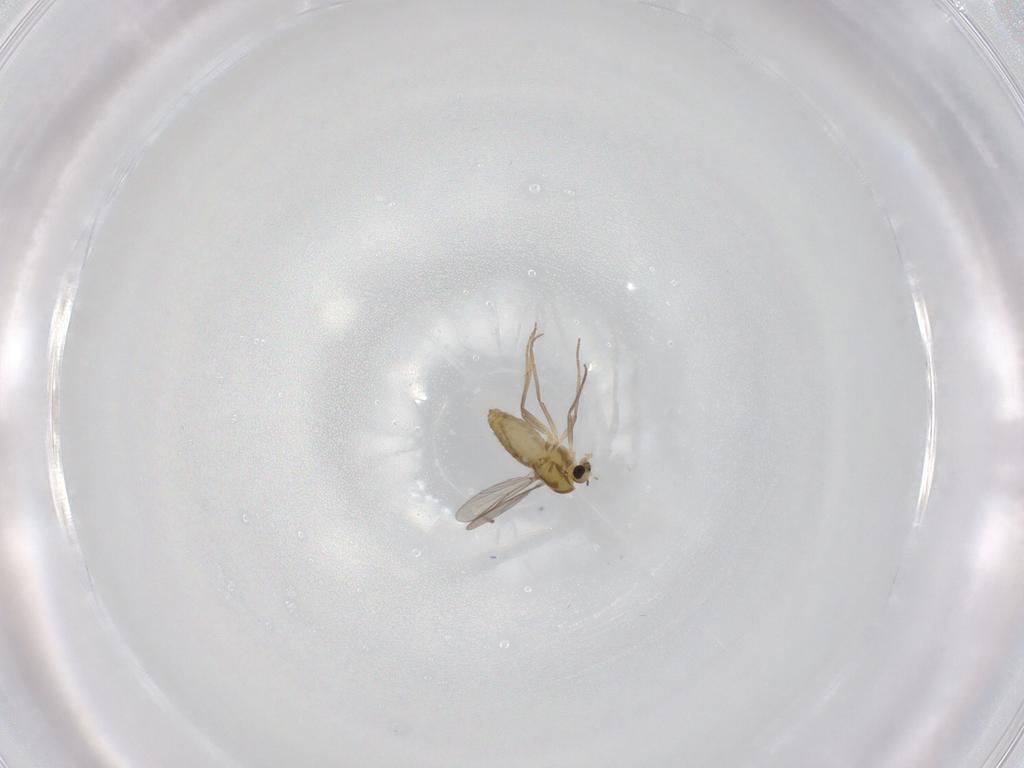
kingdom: Animalia
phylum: Arthropoda
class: Insecta
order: Diptera
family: Chironomidae
